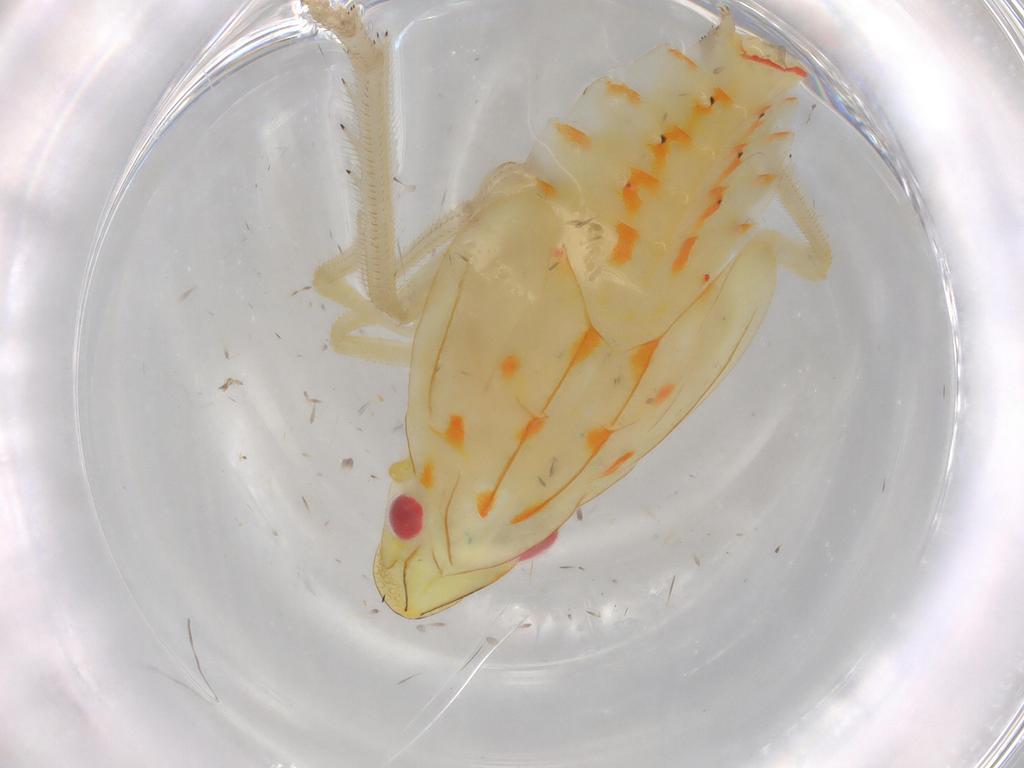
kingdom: Animalia
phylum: Arthropoda
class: Insecta
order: Hemiptera
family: Tropiduchidae
